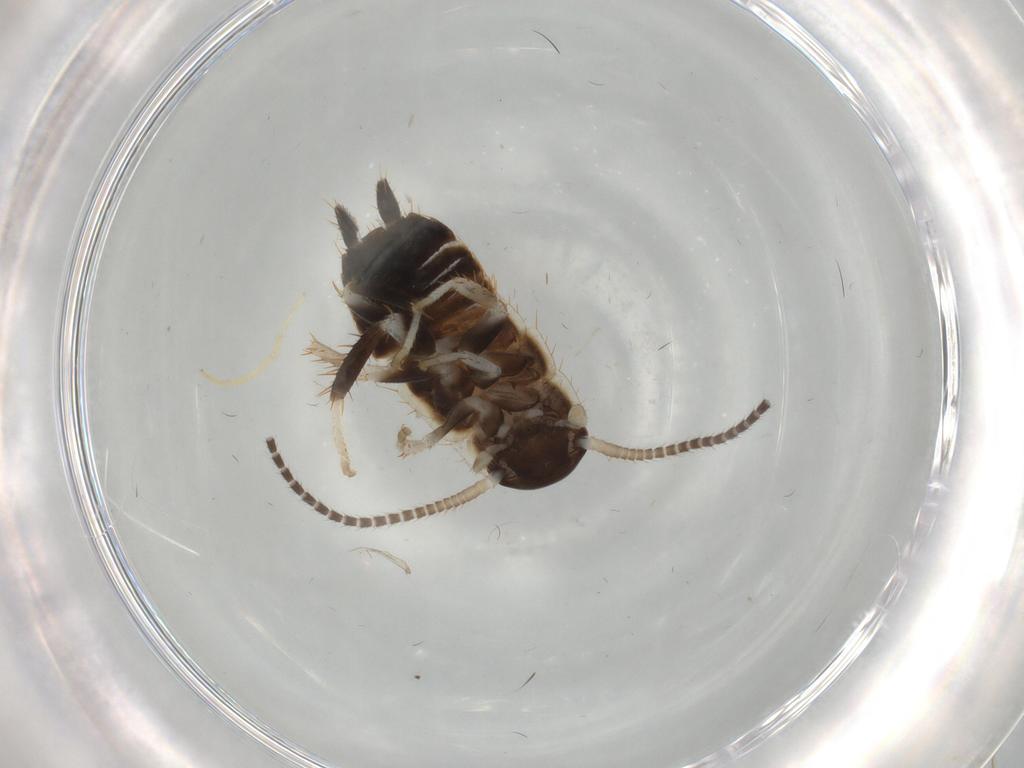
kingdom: Animalia
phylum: Arthropoda
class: Insecta
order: Blattodea
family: Ectobiidae
